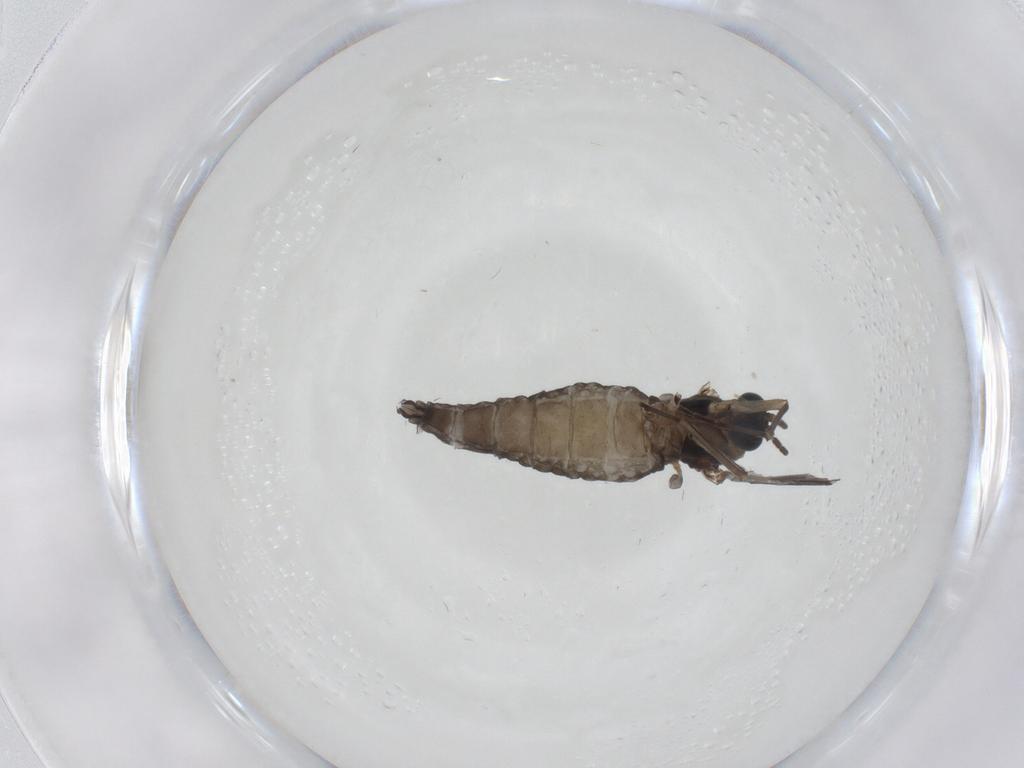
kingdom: Animalia
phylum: Arthropoda
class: Insecta
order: Diptera
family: Sciaridae
